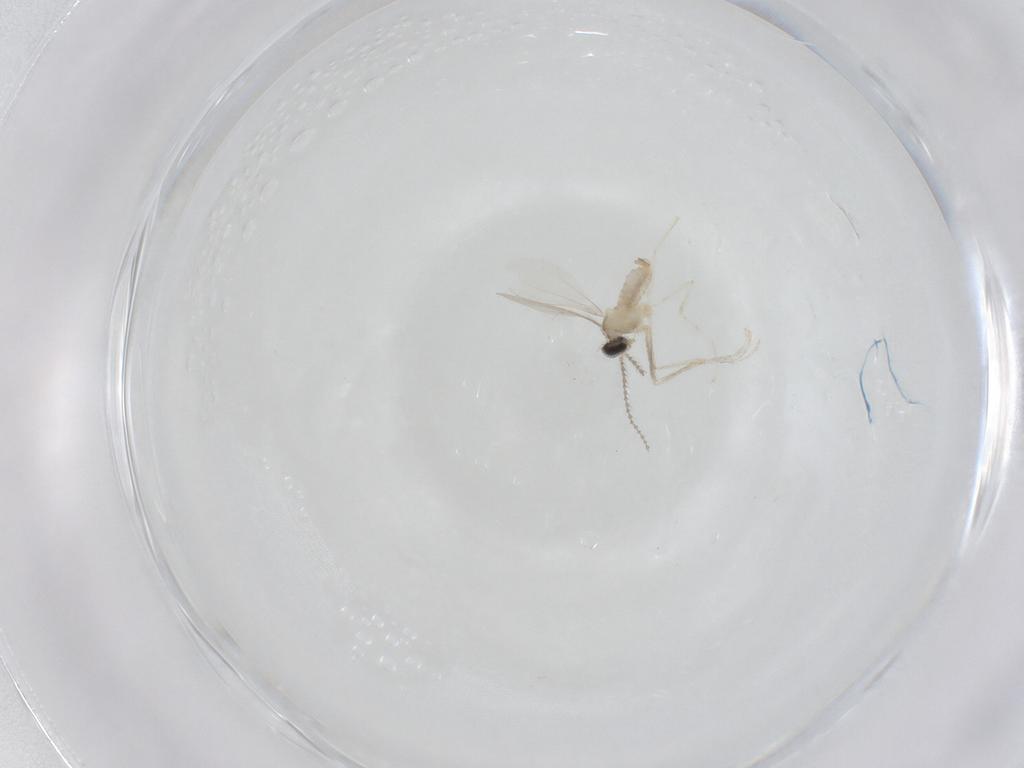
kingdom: Animalia
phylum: Arthropoda
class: Insecta
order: Diptera
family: Cecidomyiidae
